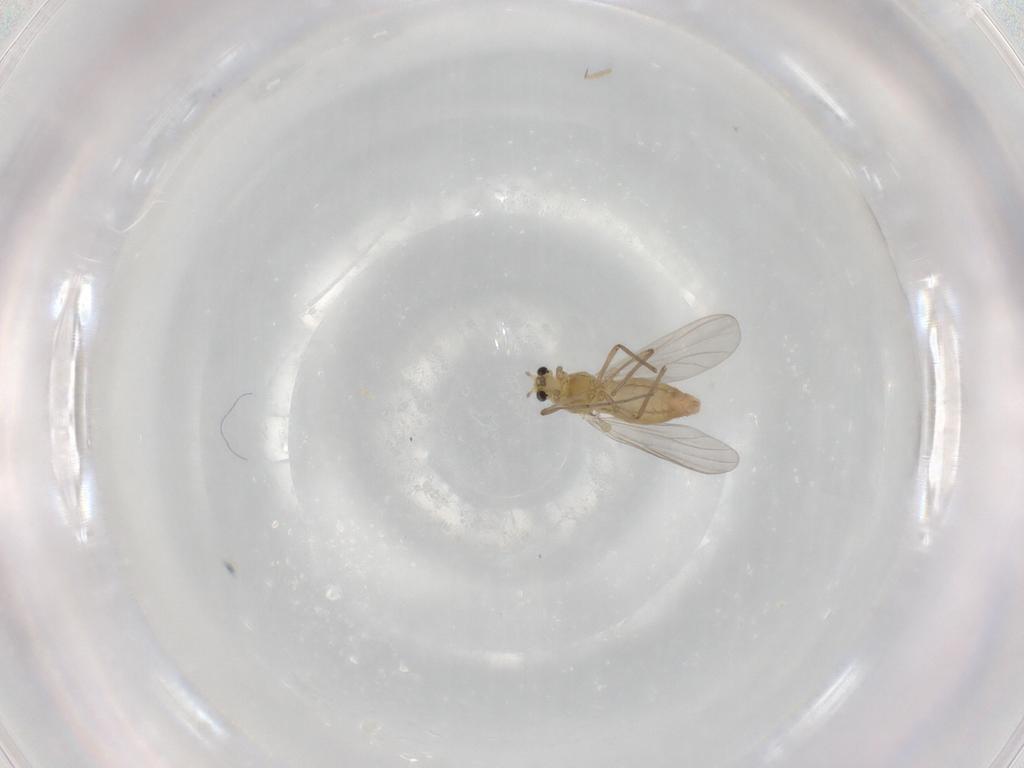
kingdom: Animalia
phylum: Arthropoda
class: Insecta
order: Diptera
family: Chironomidae
